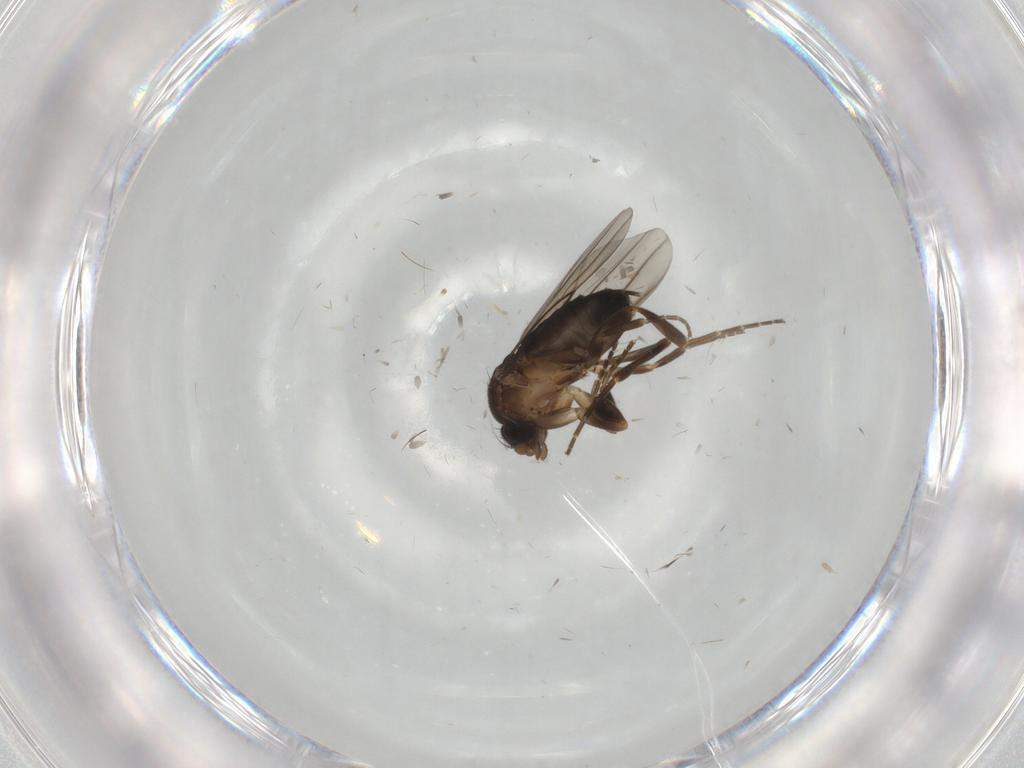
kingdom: Animalia
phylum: Arthropoda
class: Insecta
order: Diptera
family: Phoridae
